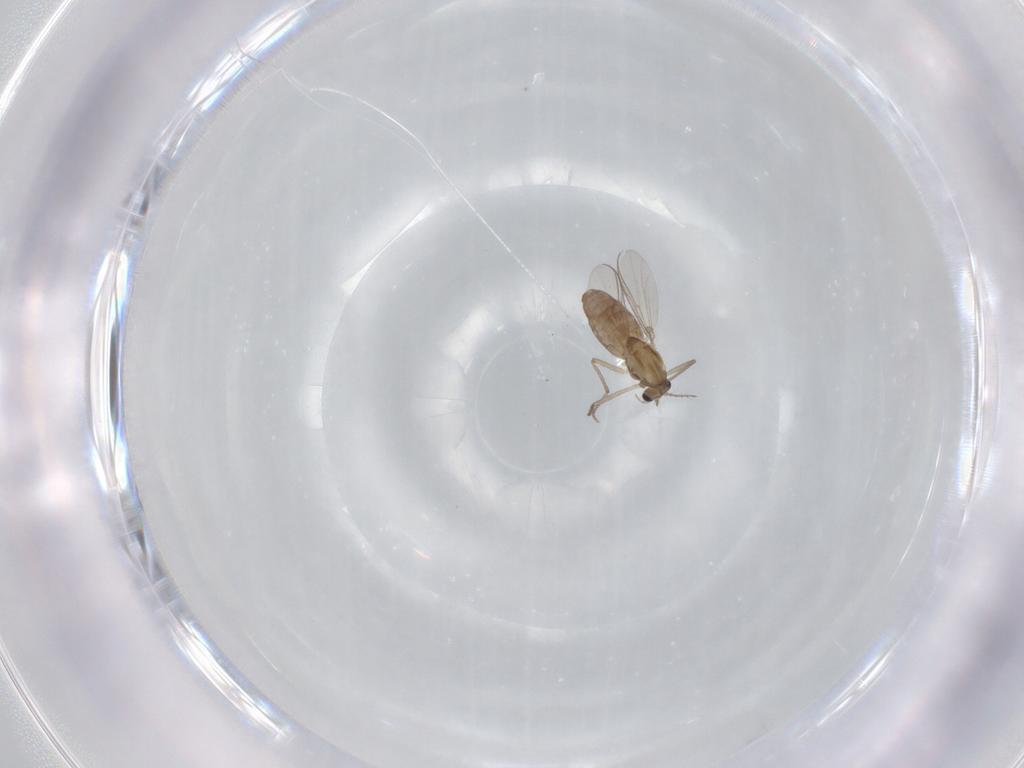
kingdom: Animalia
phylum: Arthropoda
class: Insecta
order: Diptera
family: Chironomidae
